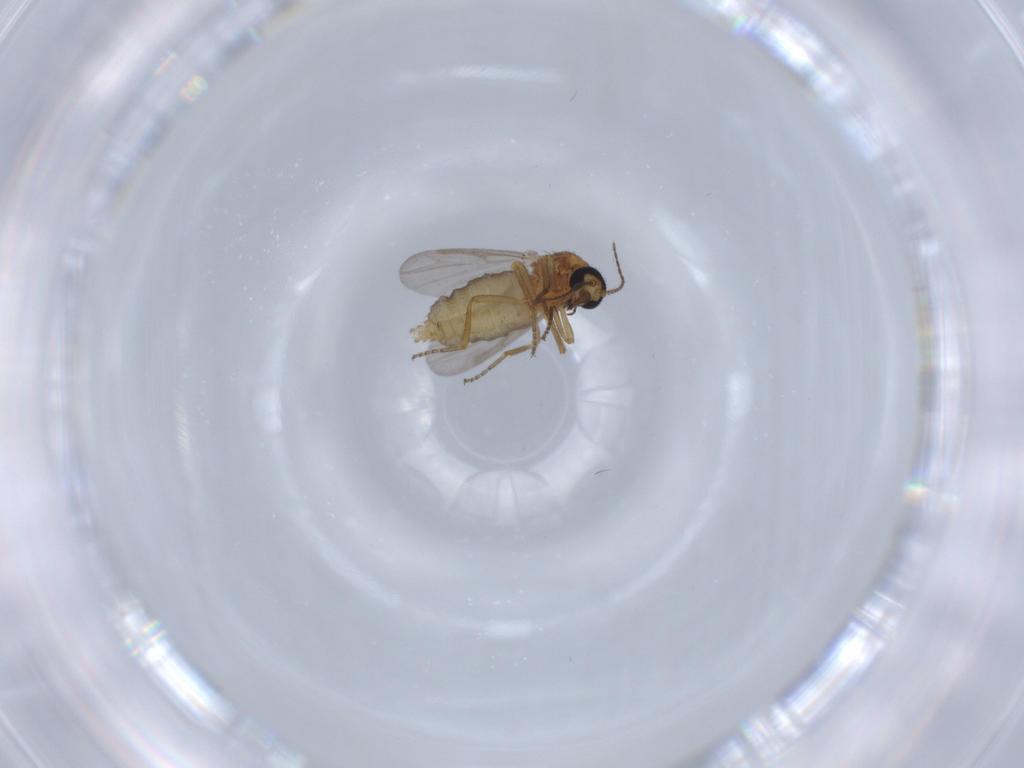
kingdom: Animalia
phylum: Arthropoda
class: Insecta
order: Diptera
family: Ceratopogonidae
